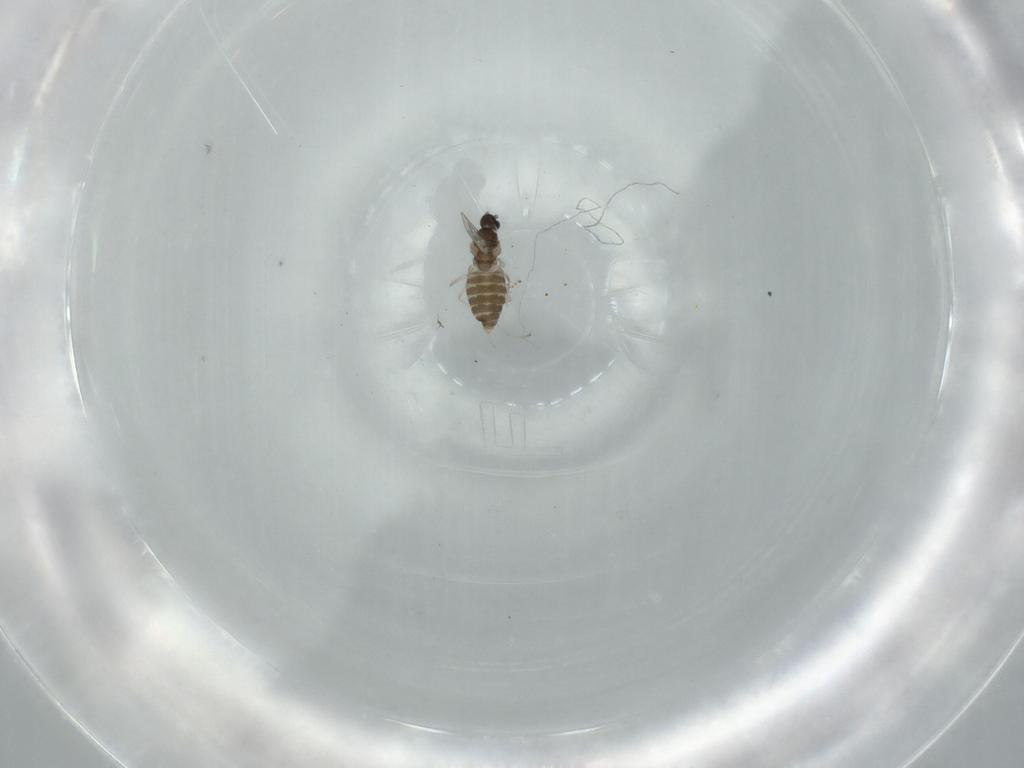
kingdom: Animalia
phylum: Arthropoda
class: Insecta
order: Diptera
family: Cecidomyiidae
